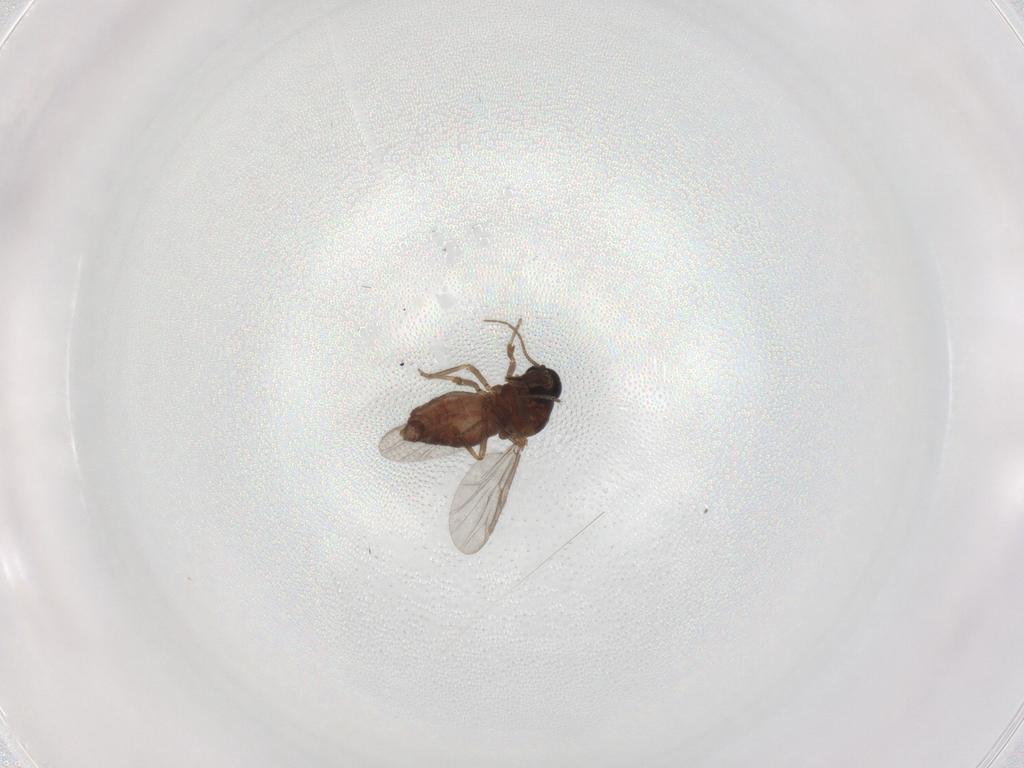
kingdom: Animalia
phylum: Arthropoda
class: Insecta
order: Diptera
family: Ceratopogonidae
